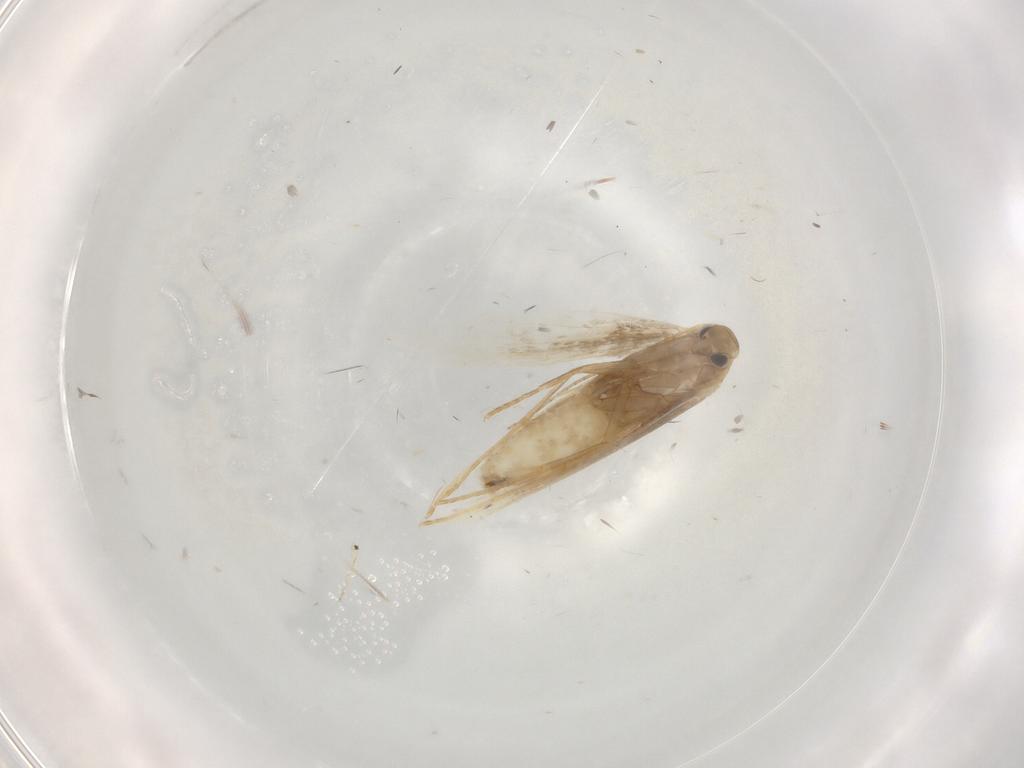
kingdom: Animalia
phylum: Arthropoda
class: Insecta
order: Lepidoptera
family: Gracillariidae
